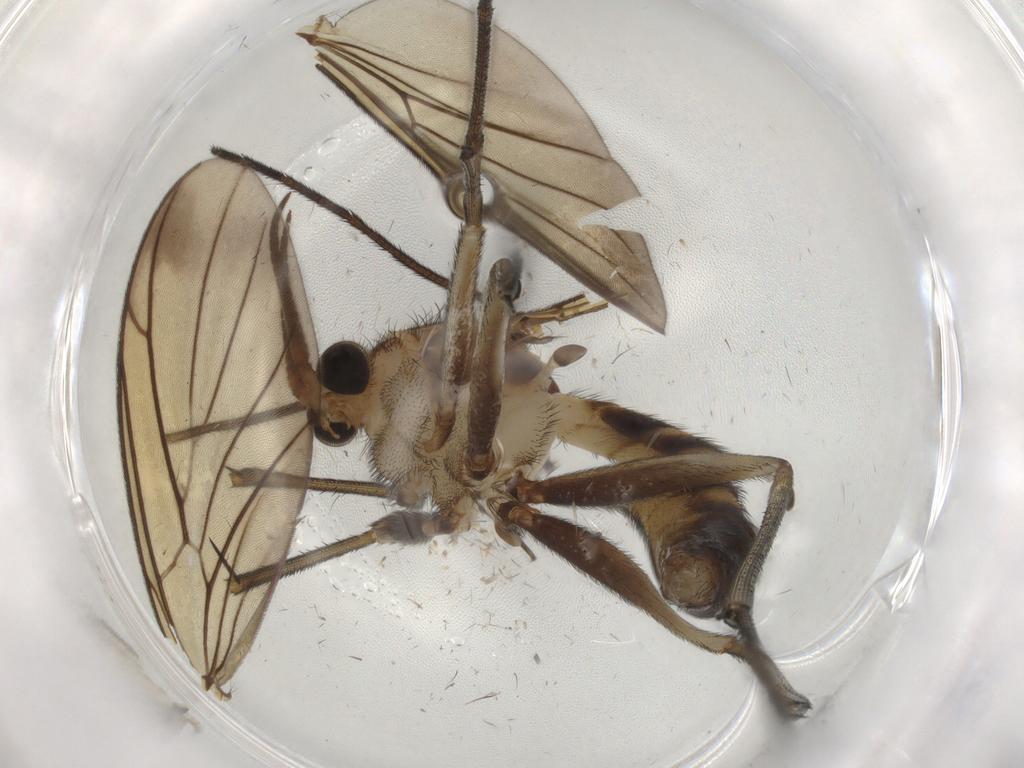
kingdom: Animalia
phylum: Arthropoda
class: Insecta
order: Diptera
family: Keroplatidae
